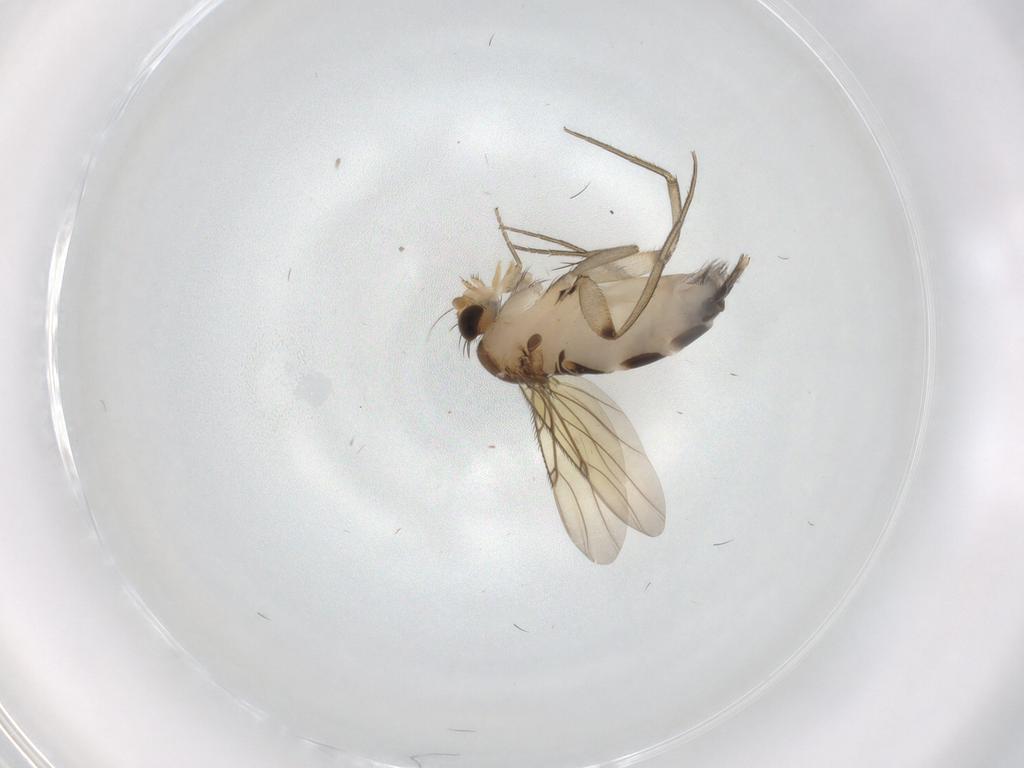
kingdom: Animalia
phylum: Arthropoda
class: Insecta
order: Diptera
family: Phoridae
